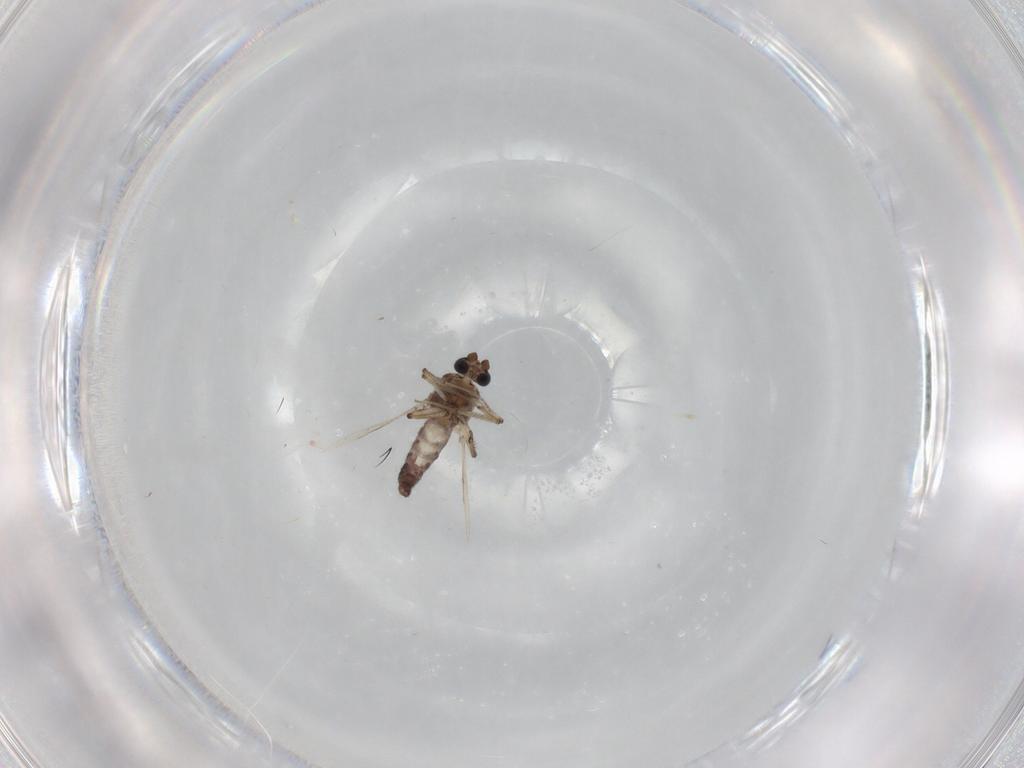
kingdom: Animalia
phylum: Arthropoda
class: Insecta
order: Diptera
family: Ceratopogonidae
